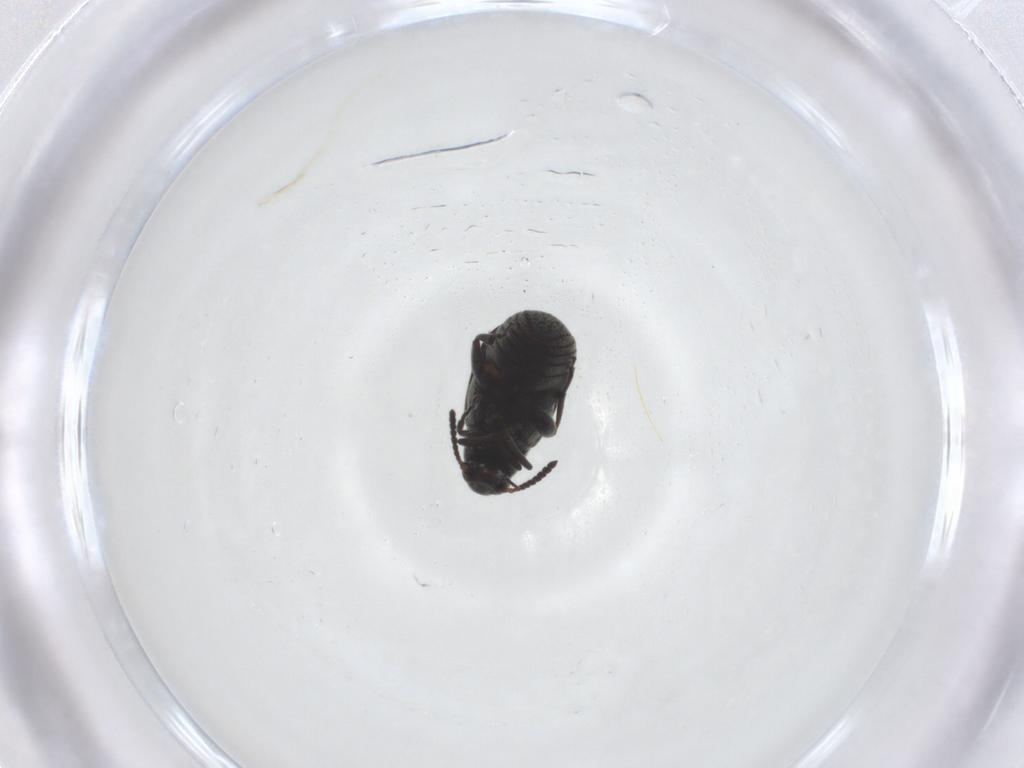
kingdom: Animalia
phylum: Arthropoda
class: Insecta
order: Coleoptera
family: Chrysomelidae
